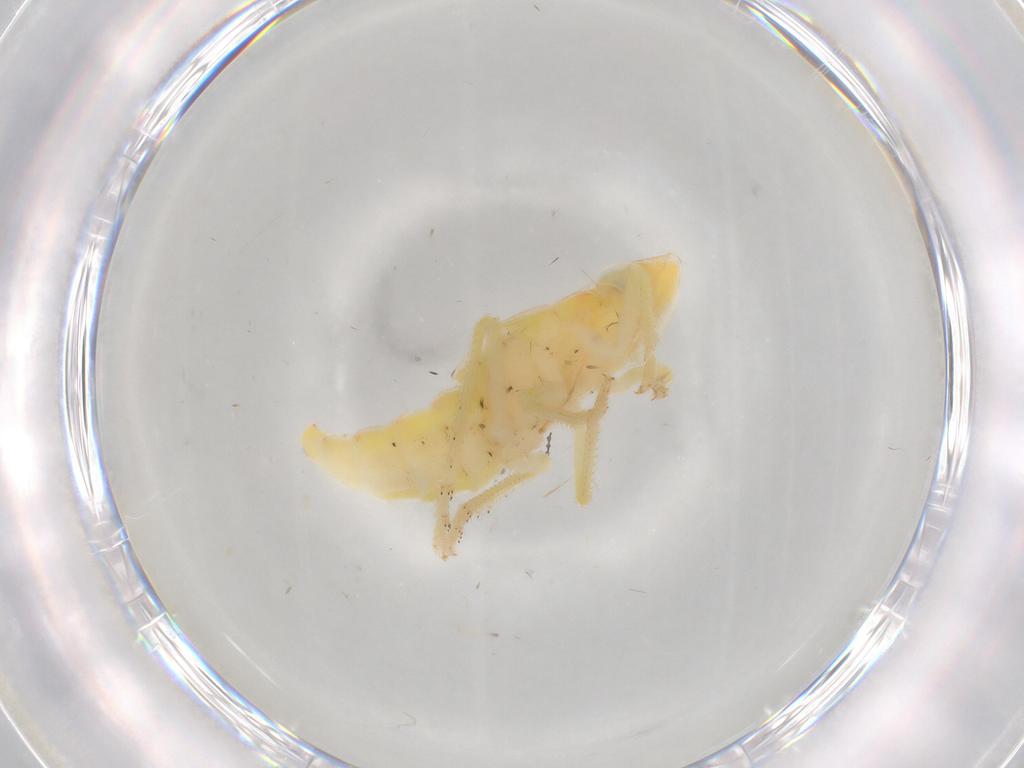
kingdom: Animalia
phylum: Arthropoda
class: Insecta
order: Hemiptera
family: Tropiduchidae
